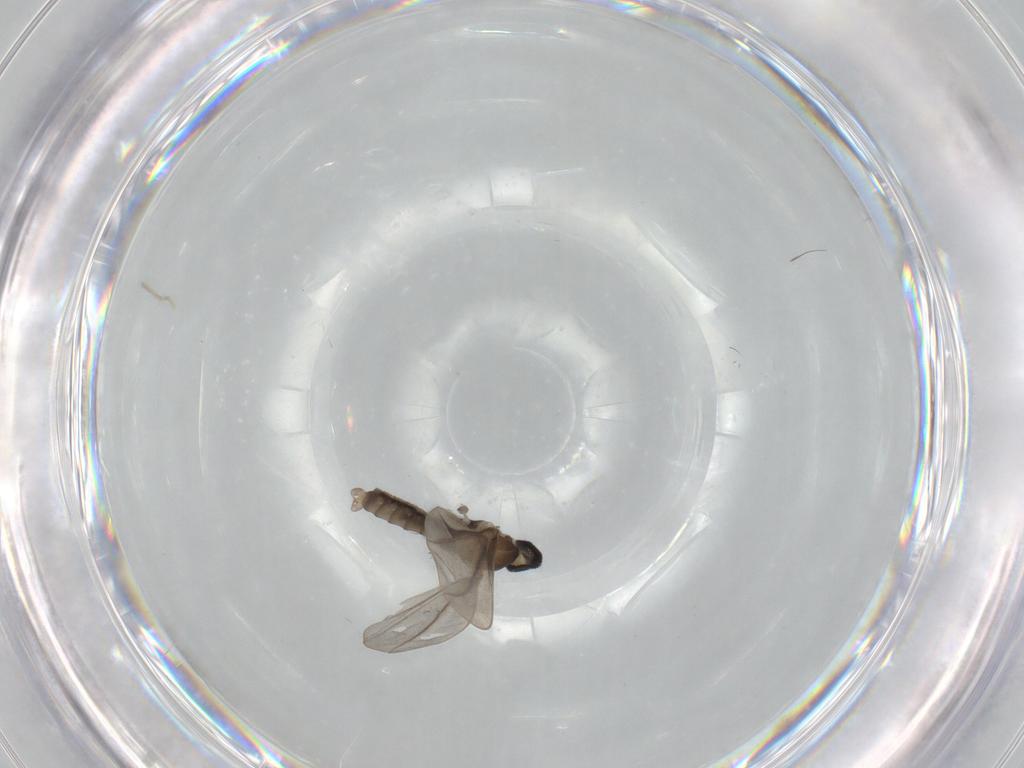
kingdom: Animalia
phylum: Arthropoda
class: Insecta
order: Diptera
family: Cecidomyiidae
